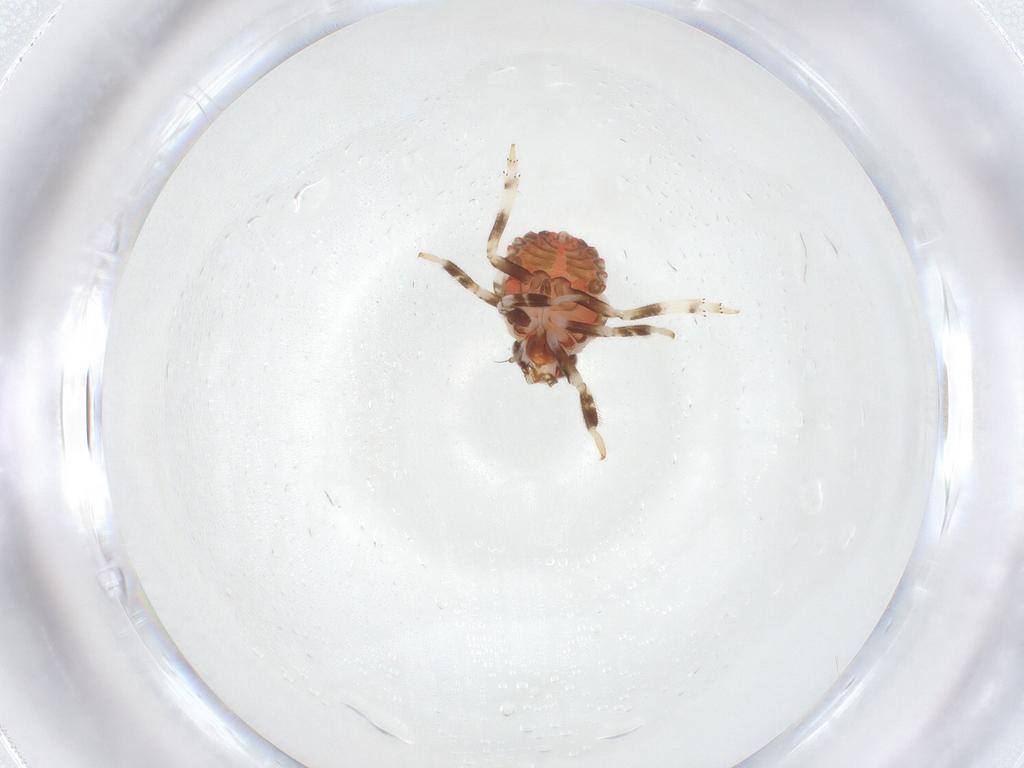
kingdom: Animalia
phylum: Arthropoda
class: Insecta
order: Hemiptera
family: Fulgoroidea_incertae_sedis
